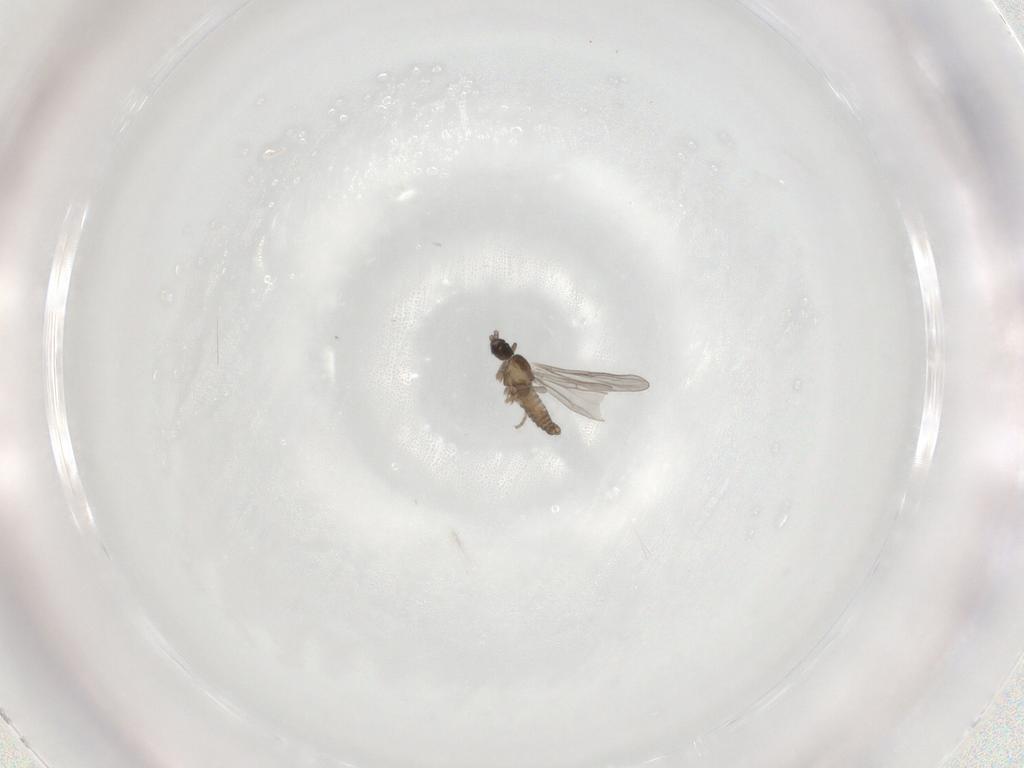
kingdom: Animalia
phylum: Arthropoda
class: Insecta
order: Diptera
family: Cecidomyiidae
